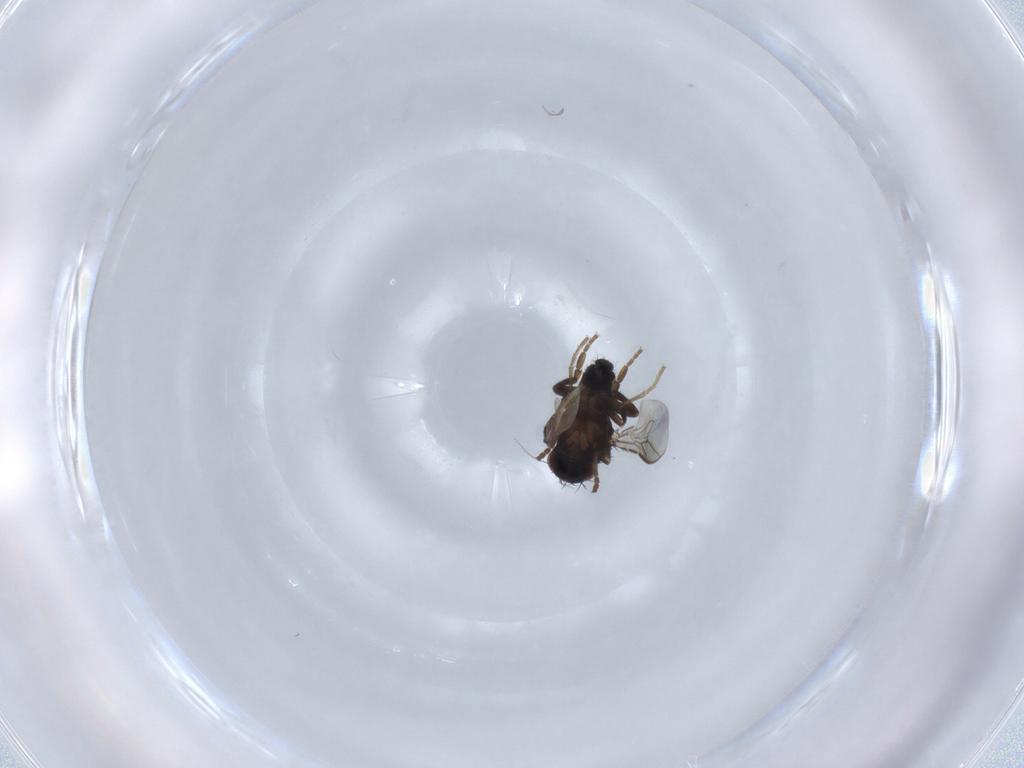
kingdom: Animalia
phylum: Arthropoda
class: Insecta
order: Diptera
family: Sphaeroceridae
